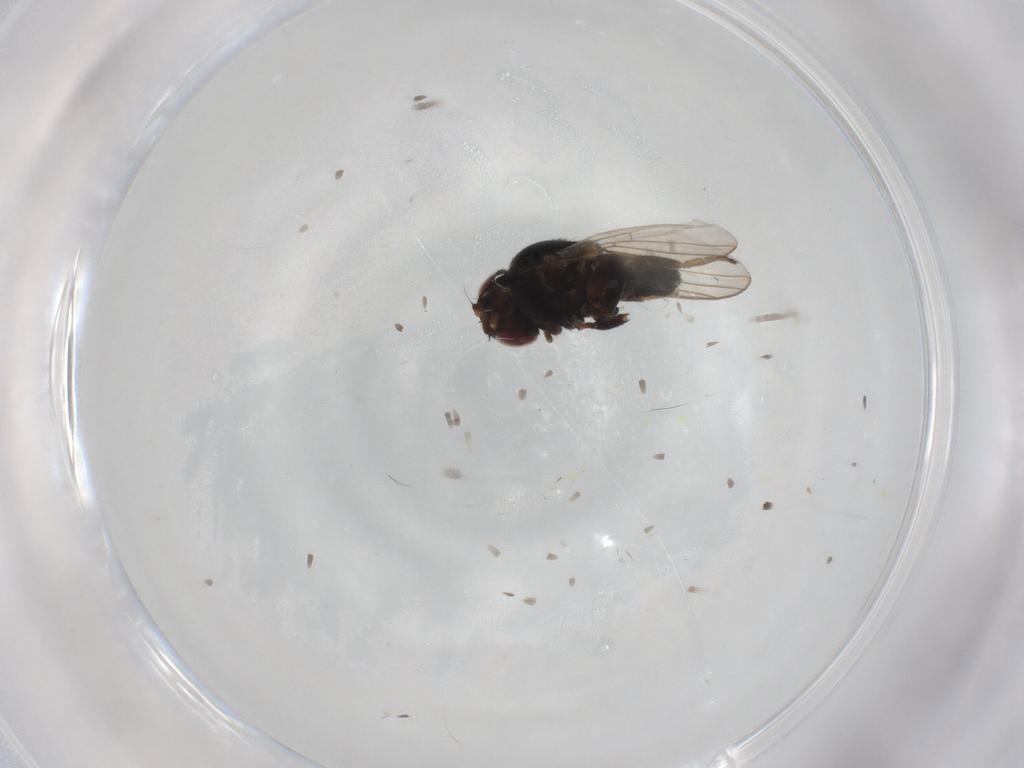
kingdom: Animalia
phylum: Arthropoda
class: Insecta
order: Diptera
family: Chloropidae
